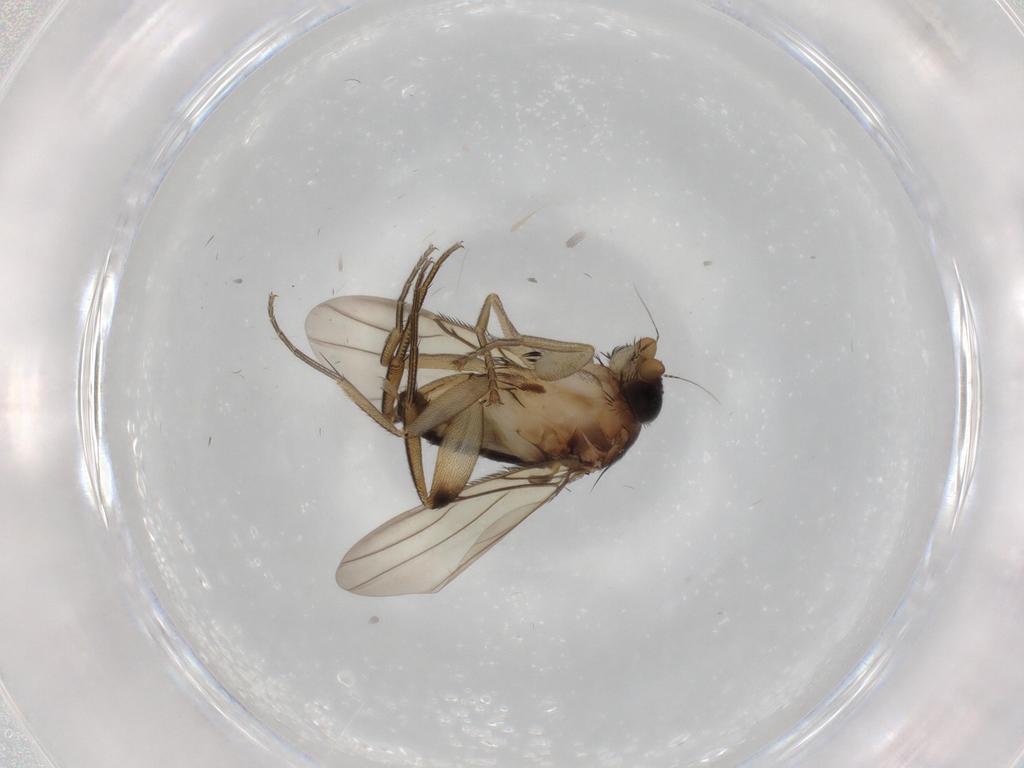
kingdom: Animalia
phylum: Arthropoda
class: Insecta
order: Diptera
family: Phoridae
